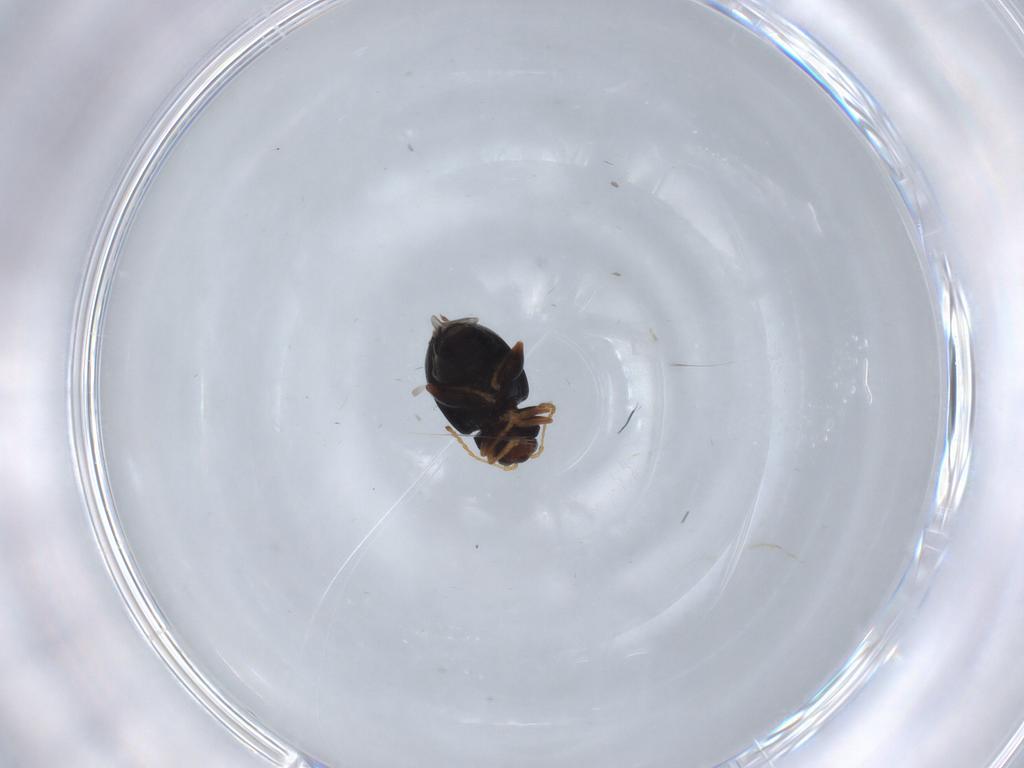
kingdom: Animalia
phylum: Arthropoda
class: Insecta
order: Coleoptera
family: Chrysomelidae
